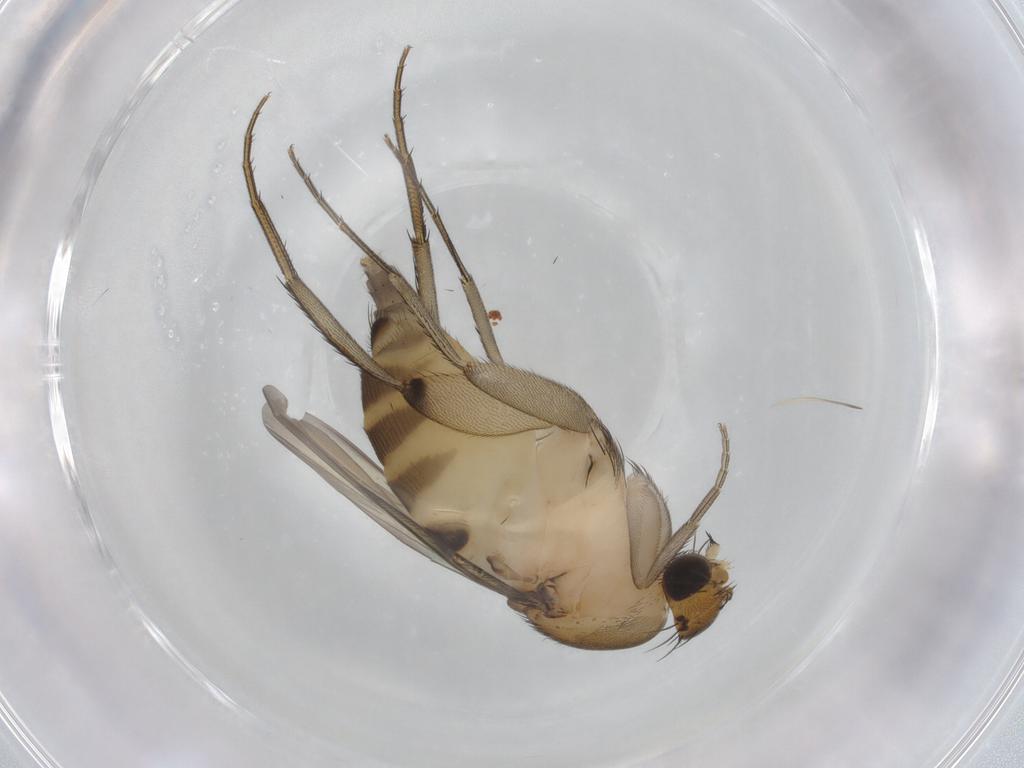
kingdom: Animalia
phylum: Arthropoda
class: Insecta
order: Diptera
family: Phoridae
